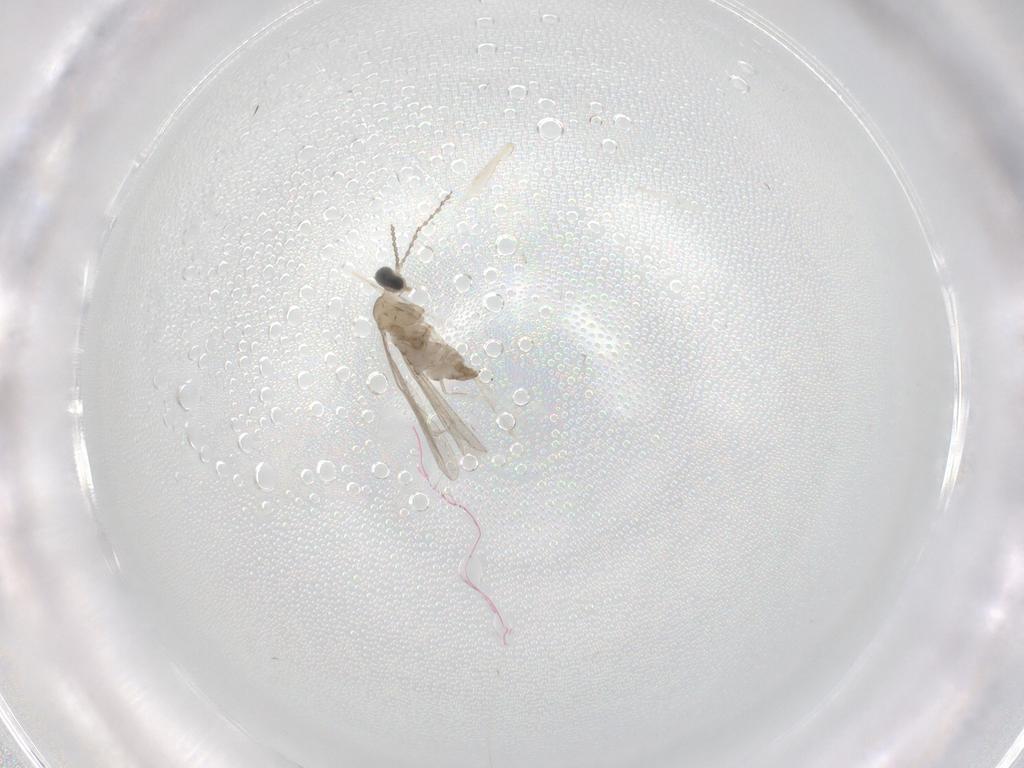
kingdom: Animalia
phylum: Arthropoda
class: Insecta
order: Diptera
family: Cecidomyiidae
